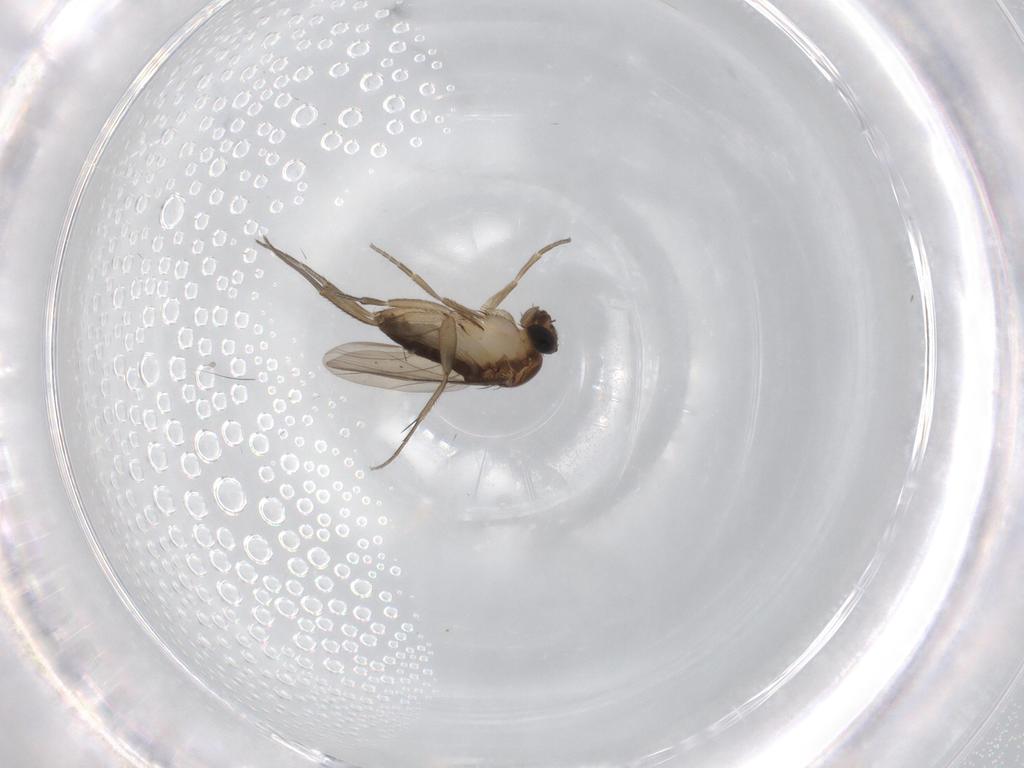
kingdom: Animalia
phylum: Arthropoda
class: Insecta
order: Diptera
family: Phoridae
